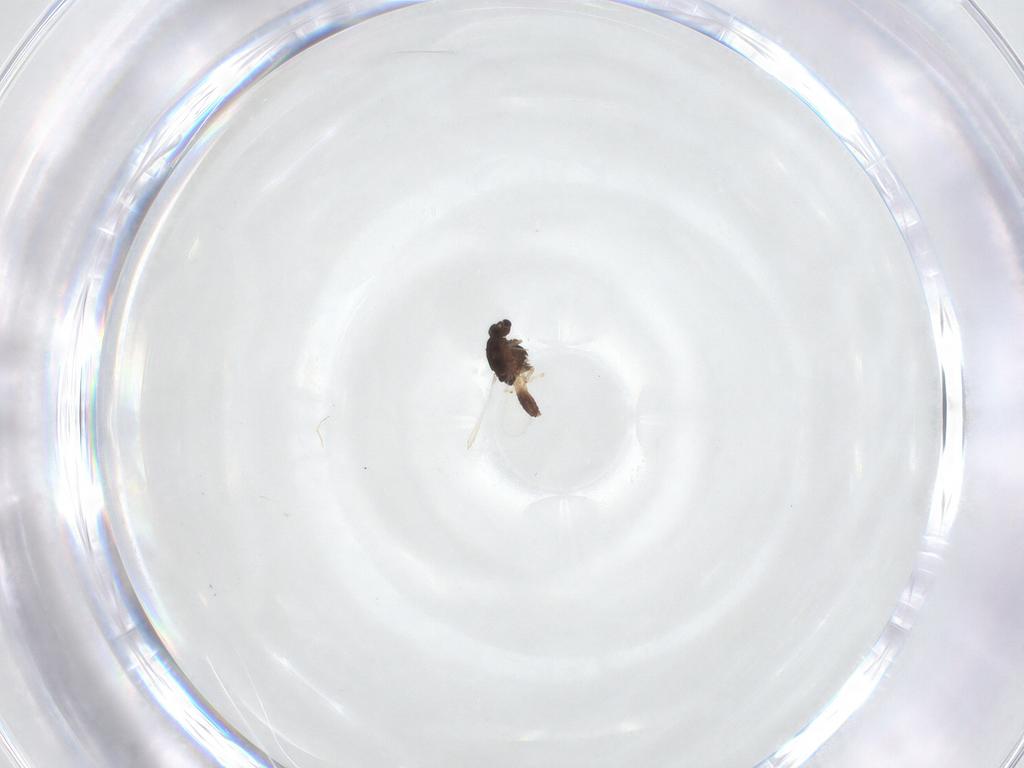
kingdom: Animalia
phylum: Arthropoda
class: Insecta
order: Diptera
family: Chironomidae
